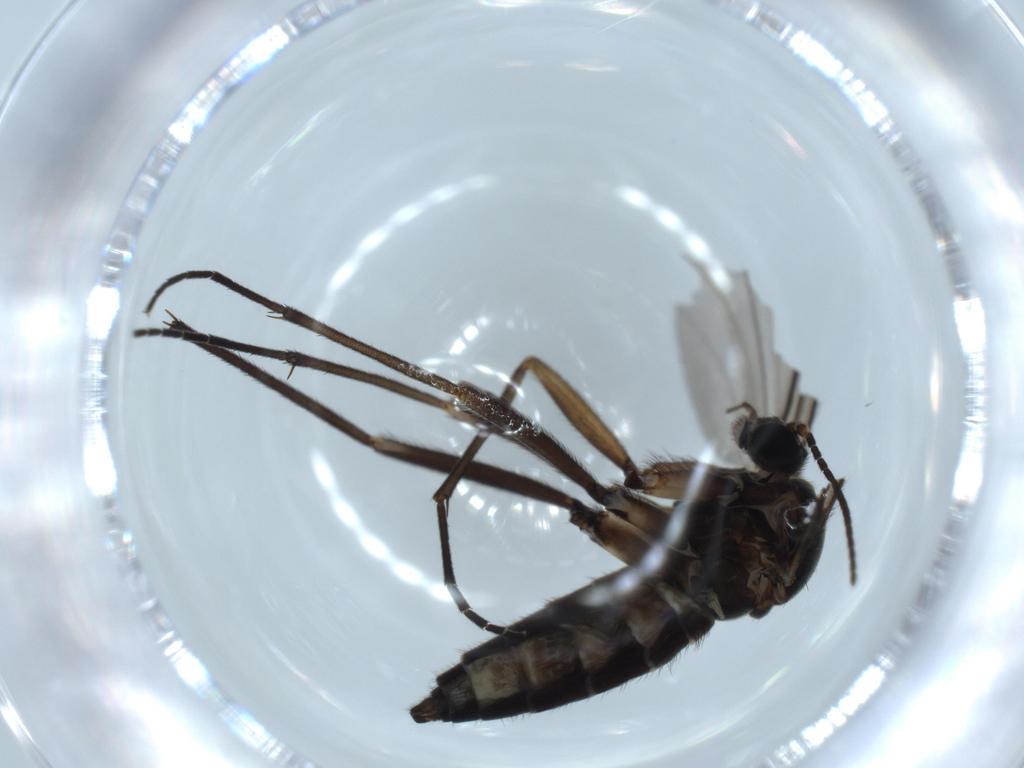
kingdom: Animalia
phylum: Arthropoda
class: Insecta
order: Diptera
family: Sciaridae
